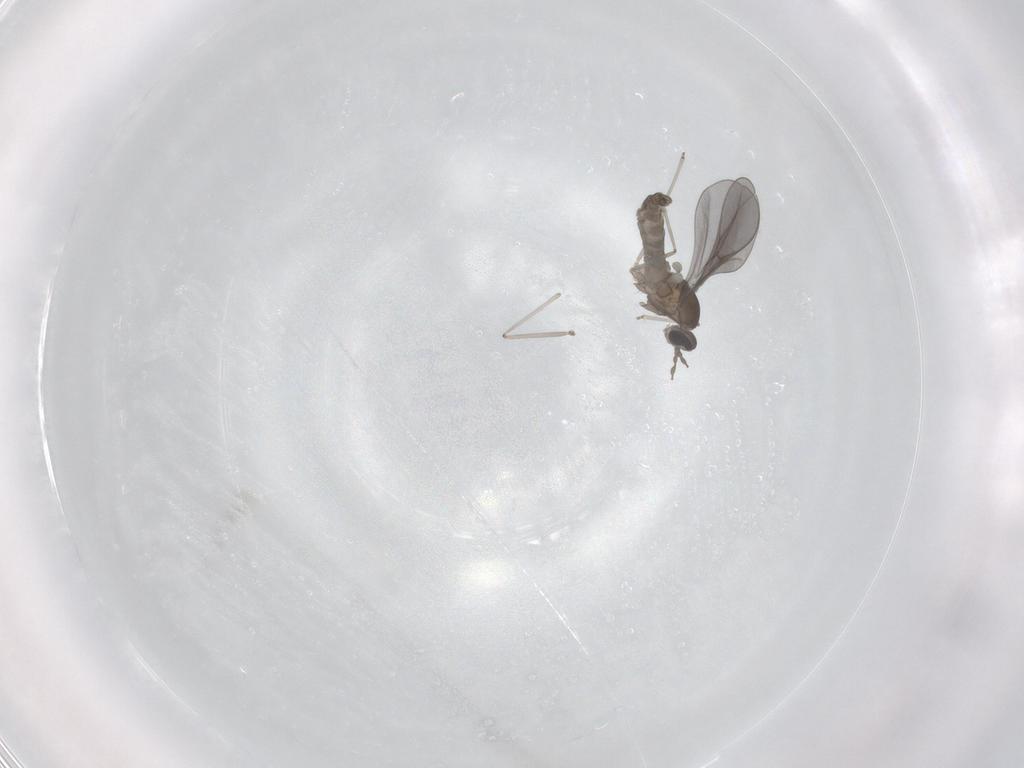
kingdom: Animalia
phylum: Arthropoda
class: Insecta
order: Diptera
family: Cecidomyiidae
